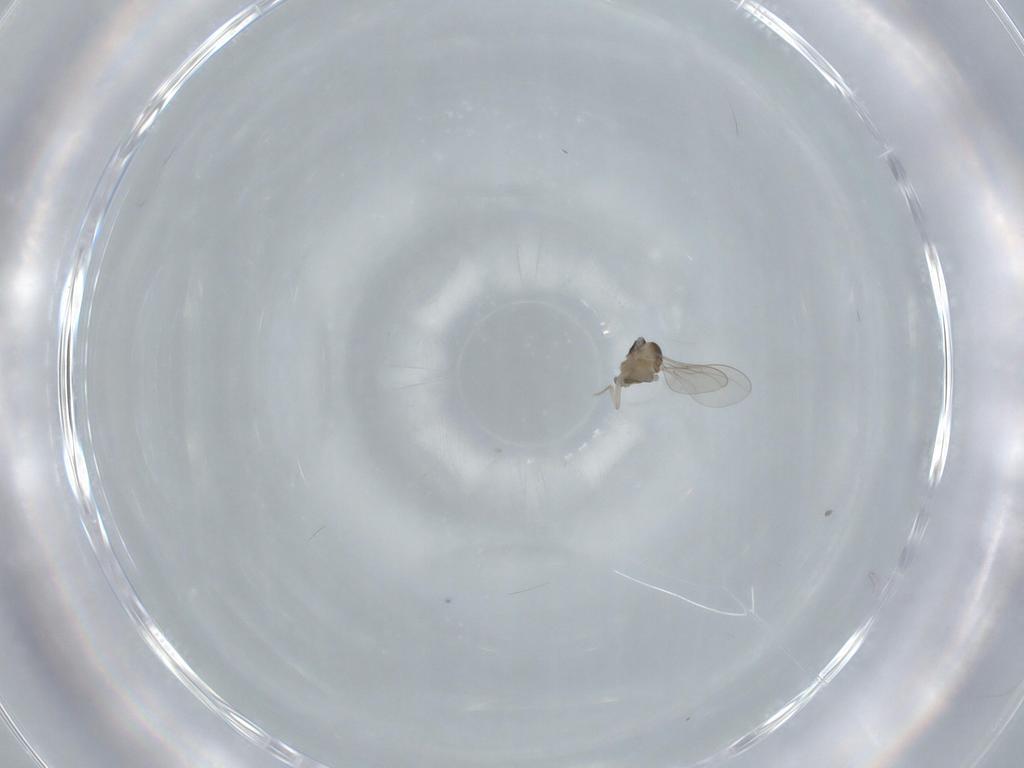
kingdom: Animalia
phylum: Arthropoda
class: Insecta
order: Diptera
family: Cecidomyiidae
